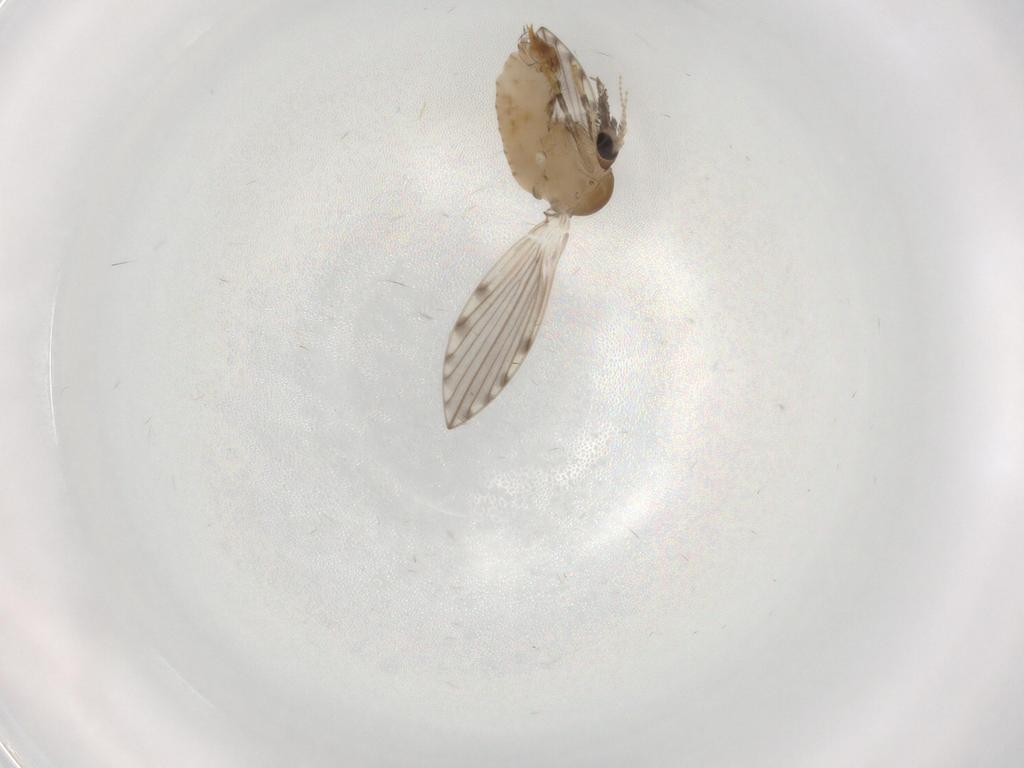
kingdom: Animalia
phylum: Arthropoda
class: Insecta
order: Diptera
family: Psychodidae
